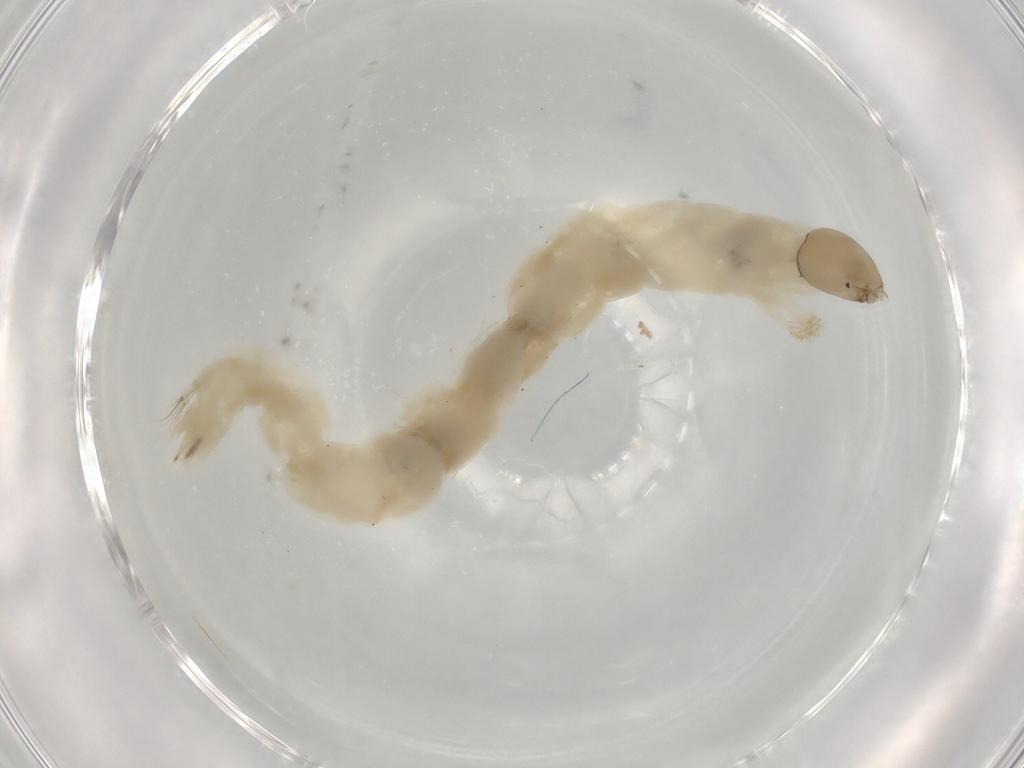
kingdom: Animalia
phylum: Arthropoda
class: Insecta
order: Diptera
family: Chironomidae
